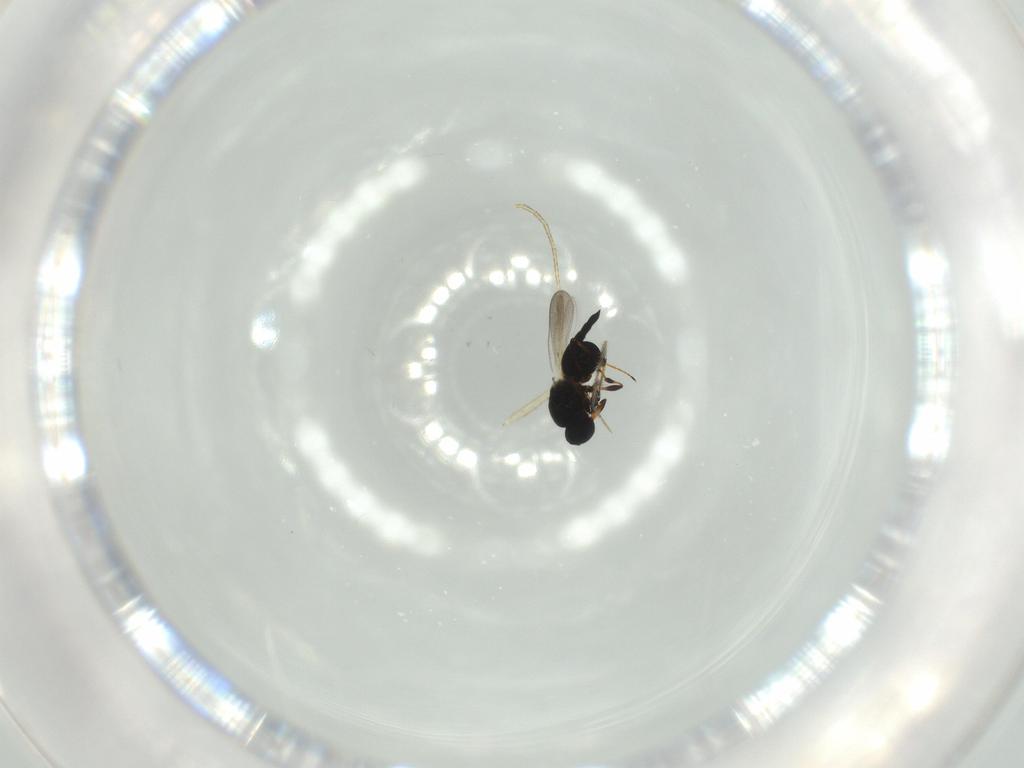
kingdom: Animalia
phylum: Arthropoda
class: Insecta
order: Hymenoptera
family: Platygastridae
